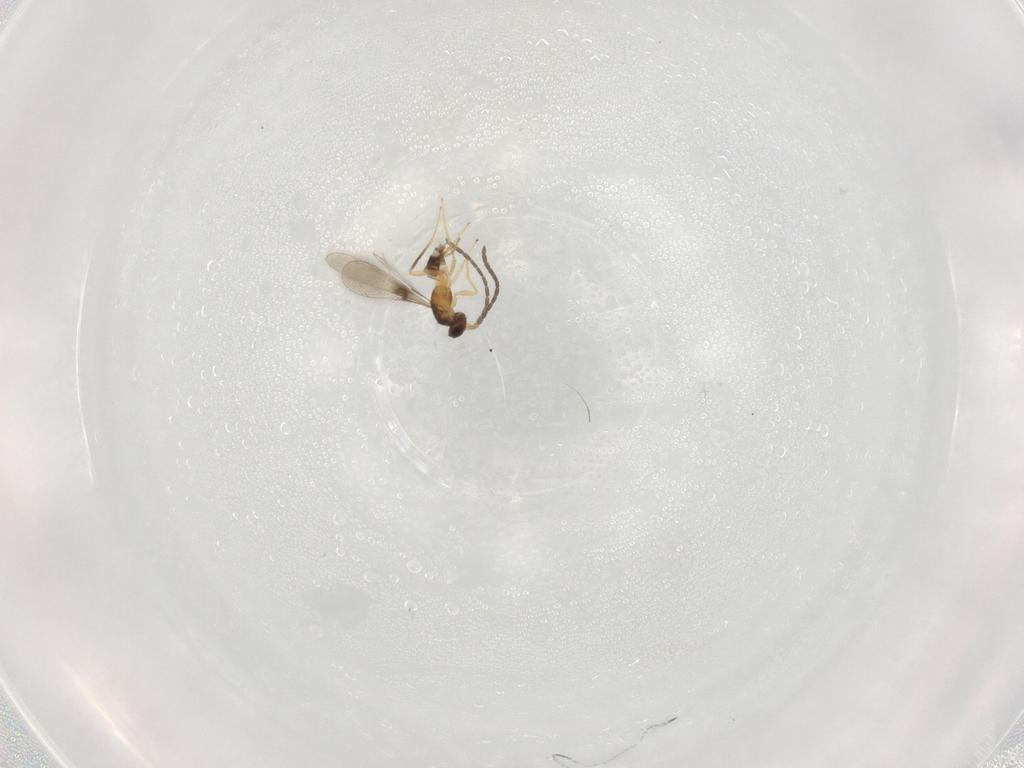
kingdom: Animalia
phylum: Arthropoda
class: Insecta
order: Hymenoptera
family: Mymaridae
